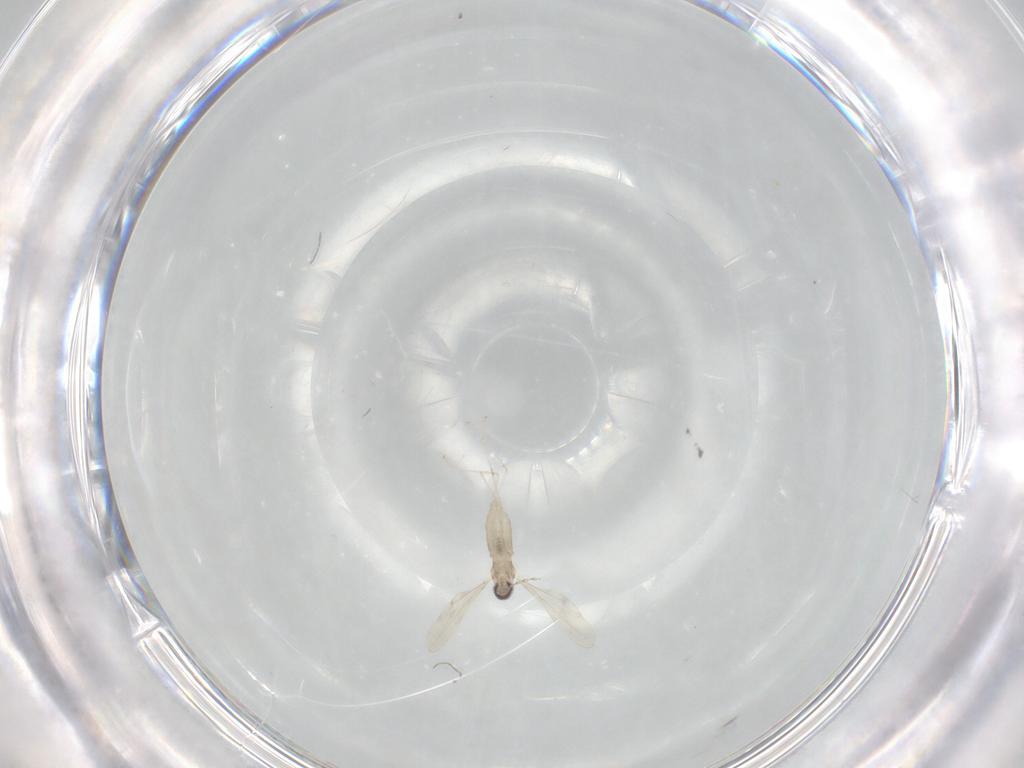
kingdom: Animalia
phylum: Arthropoda
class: Insecta
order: Diptera
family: Cecidomyiidae
